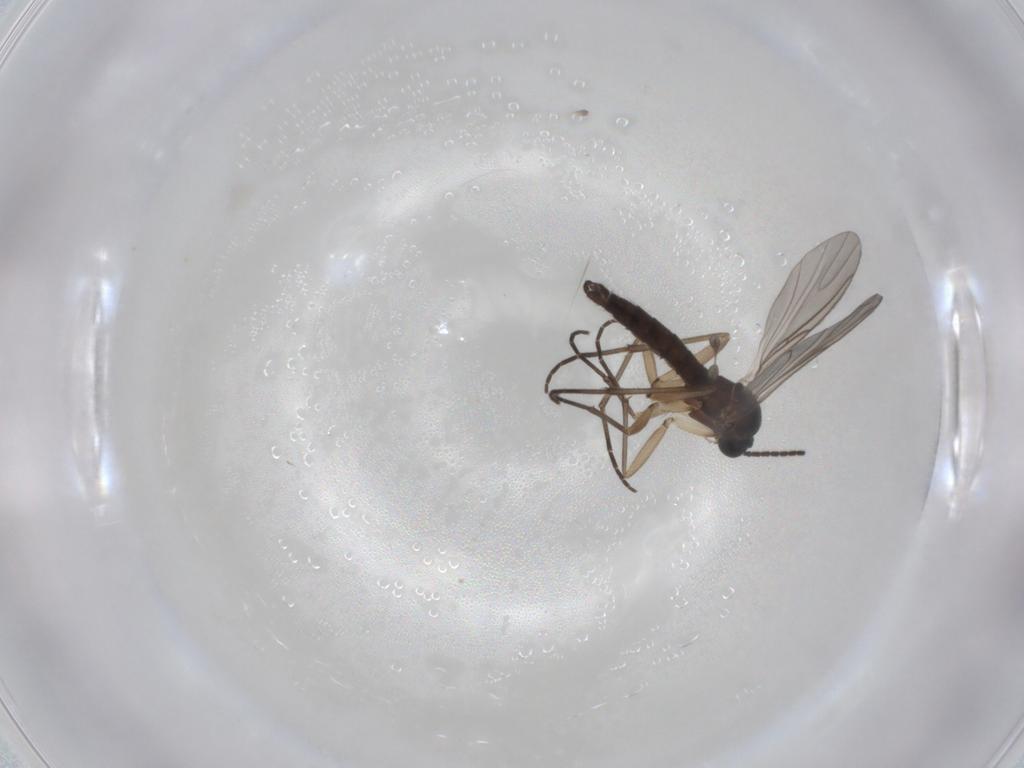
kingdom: Animalia
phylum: Arthropoda
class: Insecta
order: Diptera
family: Sciaridae
